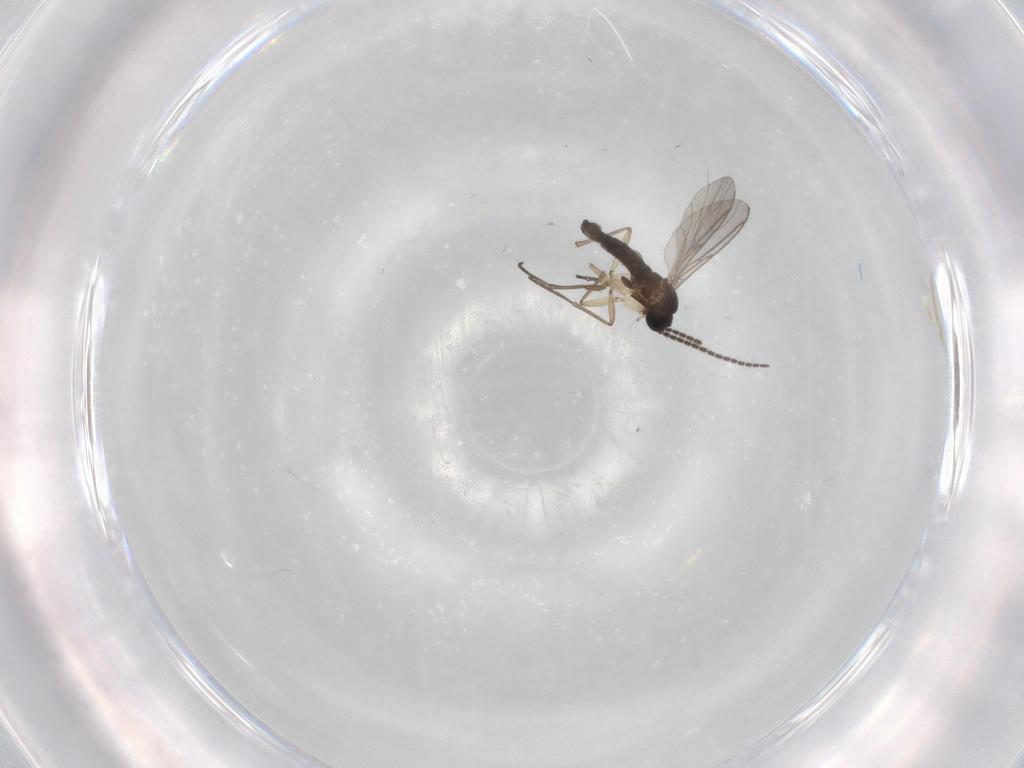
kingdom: Animalia
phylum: Arthropoda
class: Insecta
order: Diptera
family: Sciaridae
